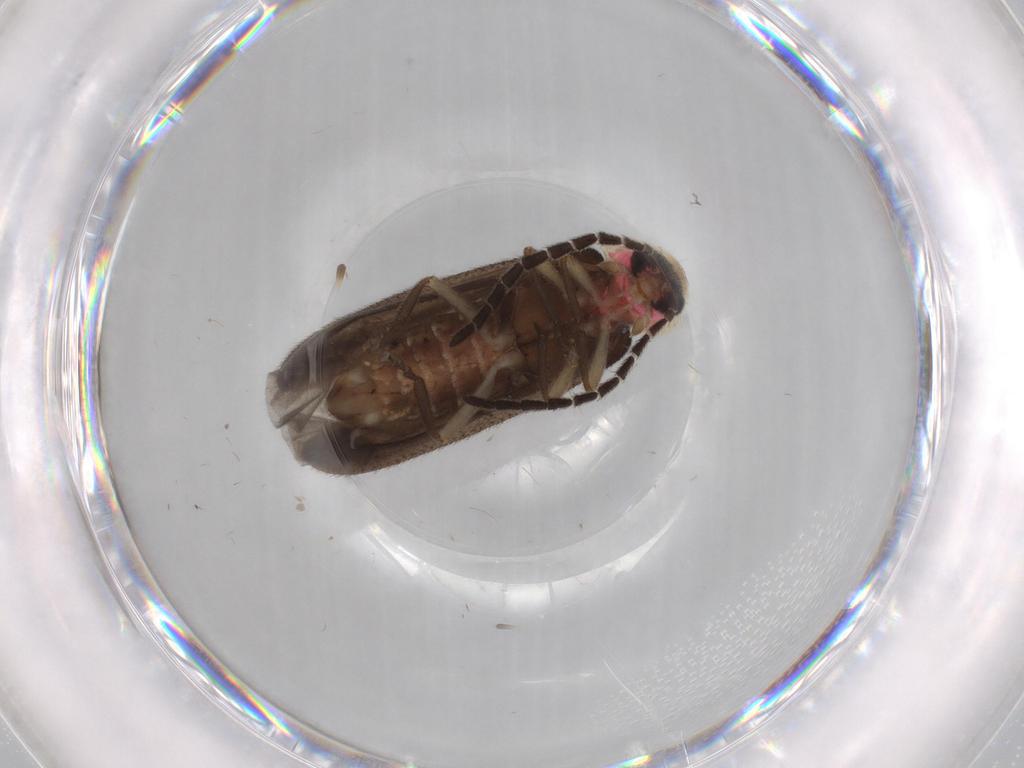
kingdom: Animalia
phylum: Arthropoda
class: Insecta
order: Coleoptera
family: Lampyridae
